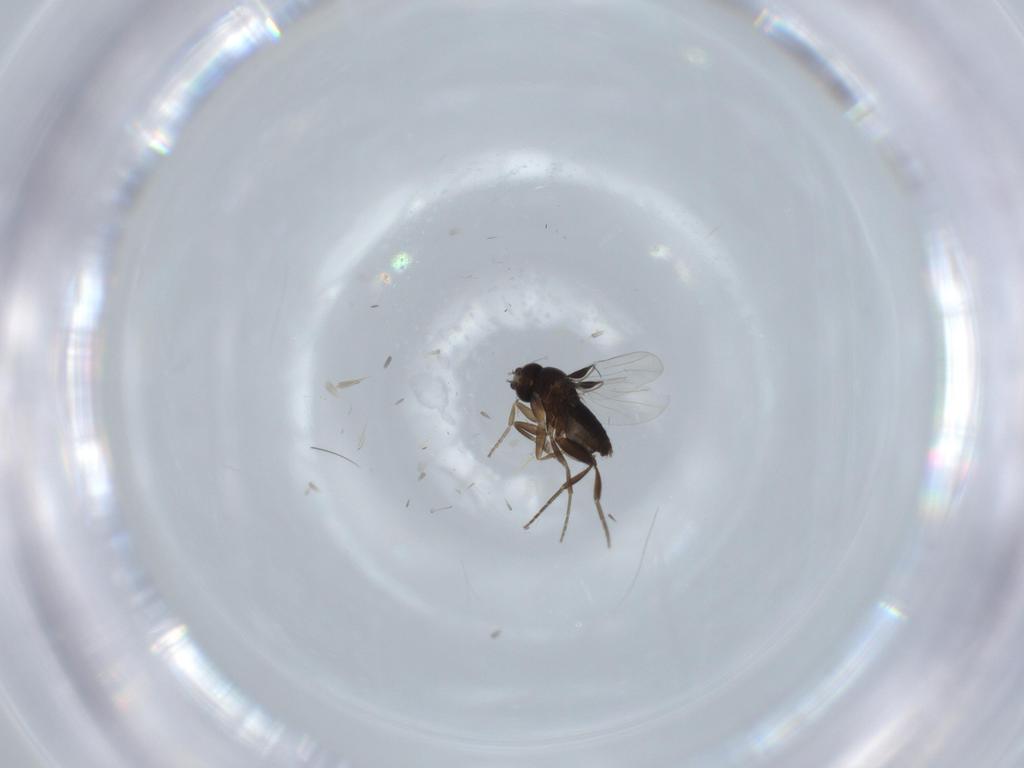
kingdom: Animalia
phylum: Arthropoda
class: Insecta
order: Diptera
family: Phoridae
